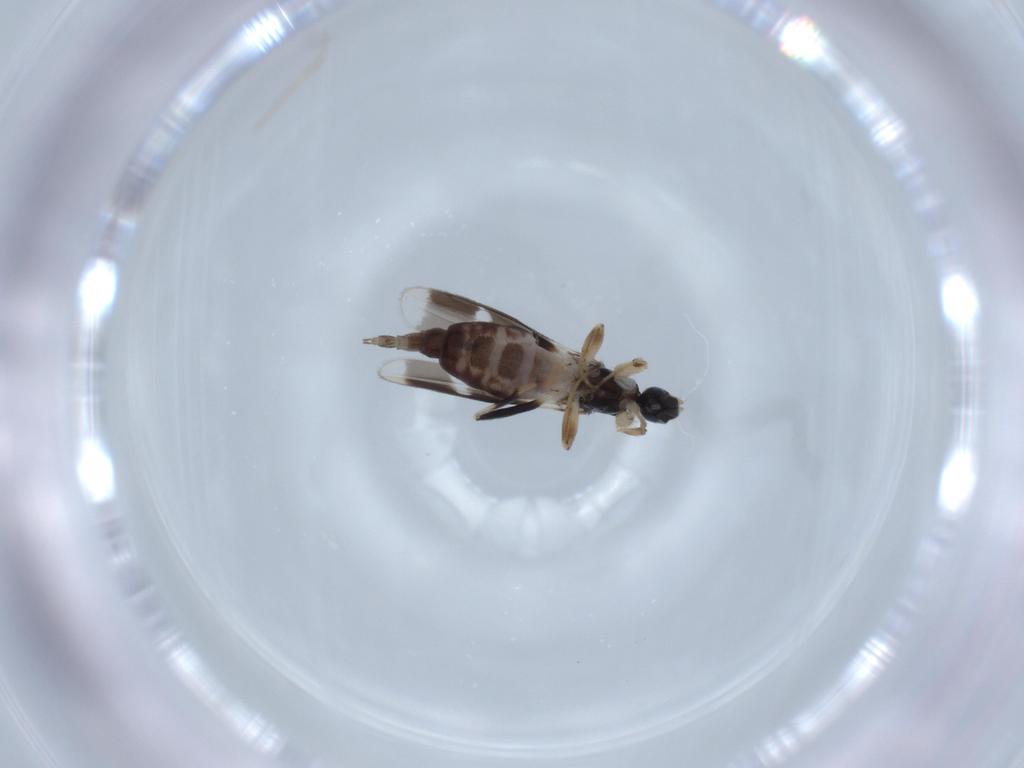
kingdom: Animalia
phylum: Arthropoda
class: Insecta
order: Diptera
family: Hybotidae
